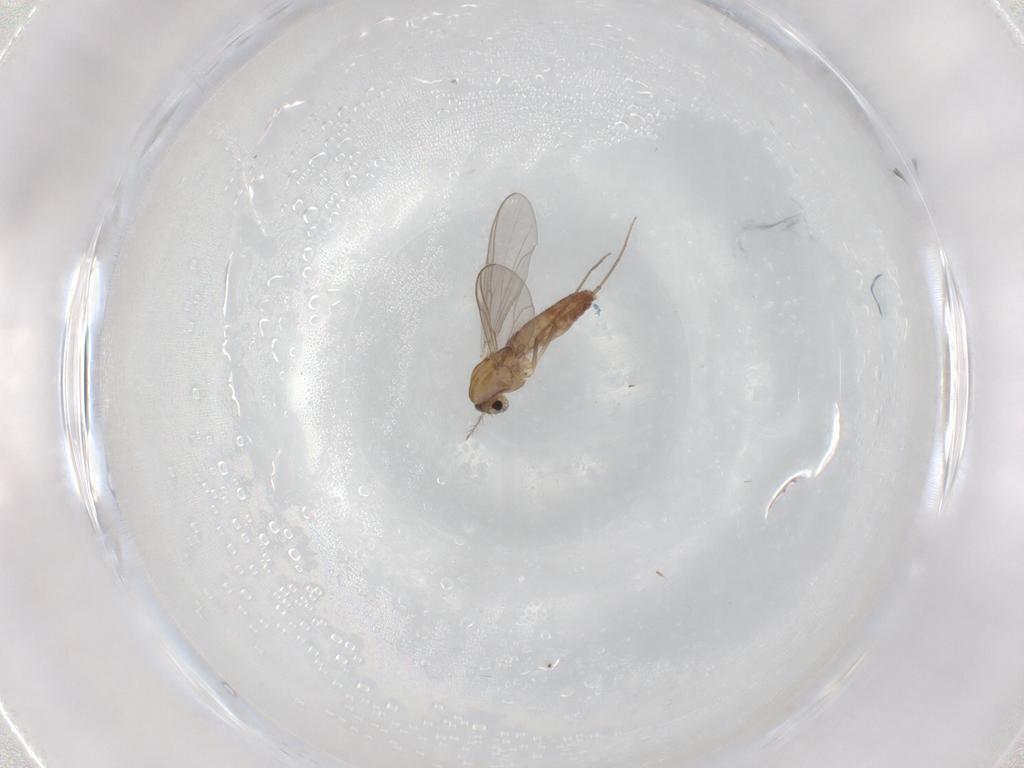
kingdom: Animalia
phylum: Arthropoda
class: Insecta
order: Diptera
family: Chironomidae
